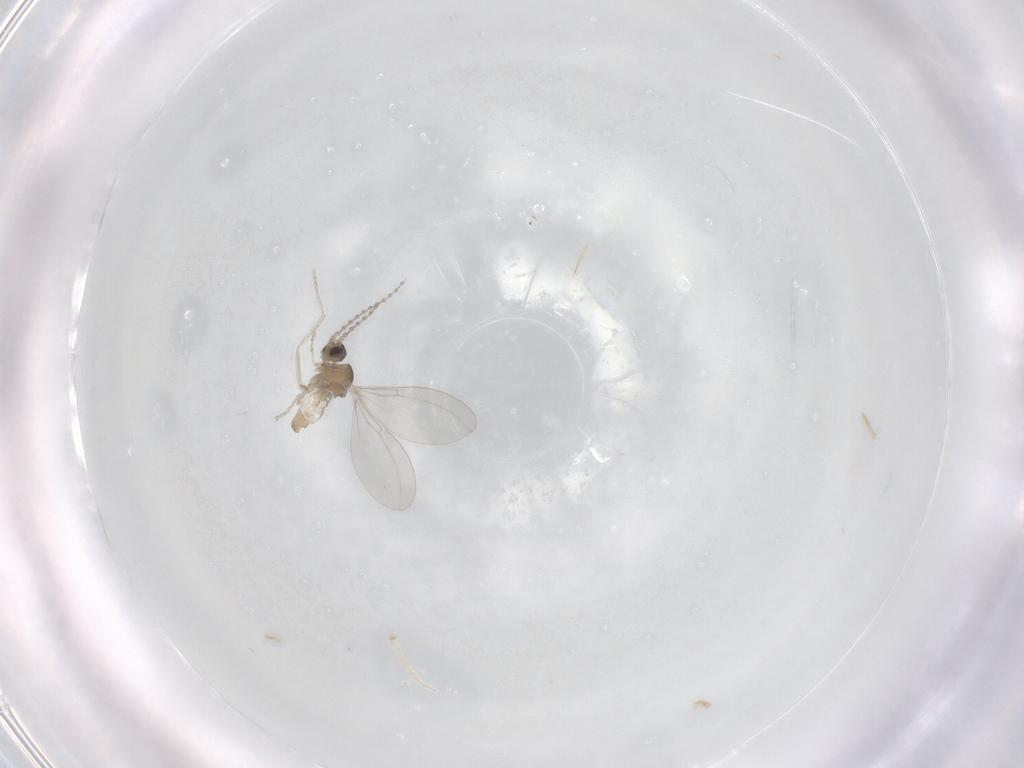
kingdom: Animalia
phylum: Arthropoda
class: Insecta
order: Diptera
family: Cecidomyiidae
